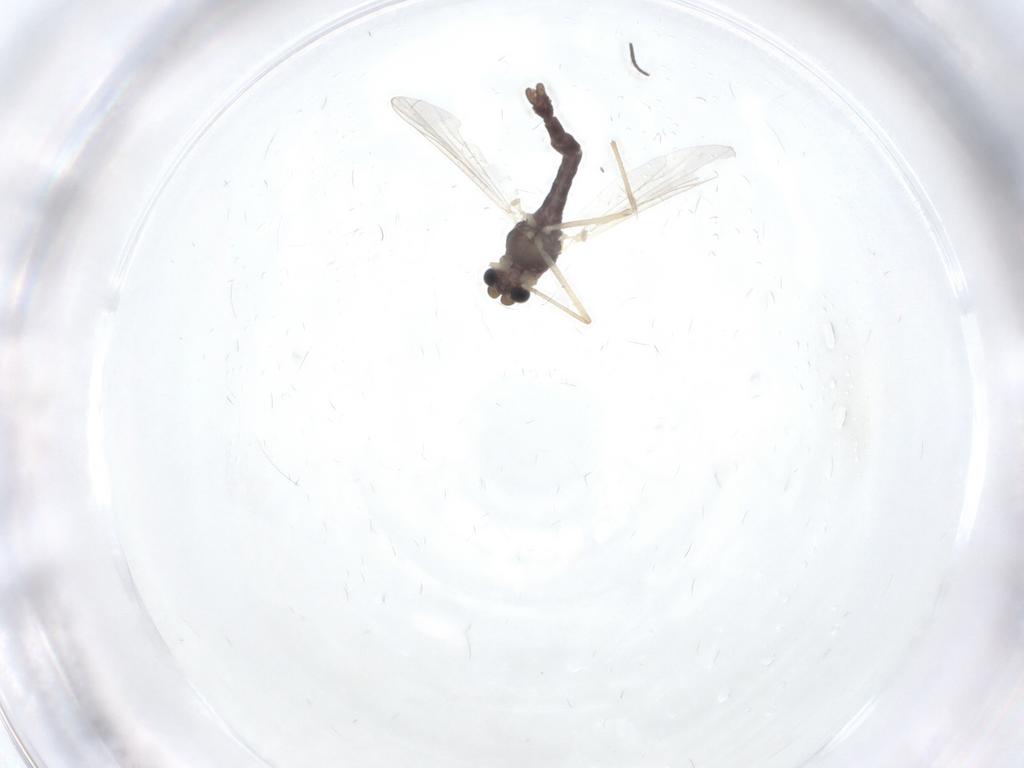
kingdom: Animalia
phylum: Arthropoda
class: Insecta
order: Diptera
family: Chironomidae
